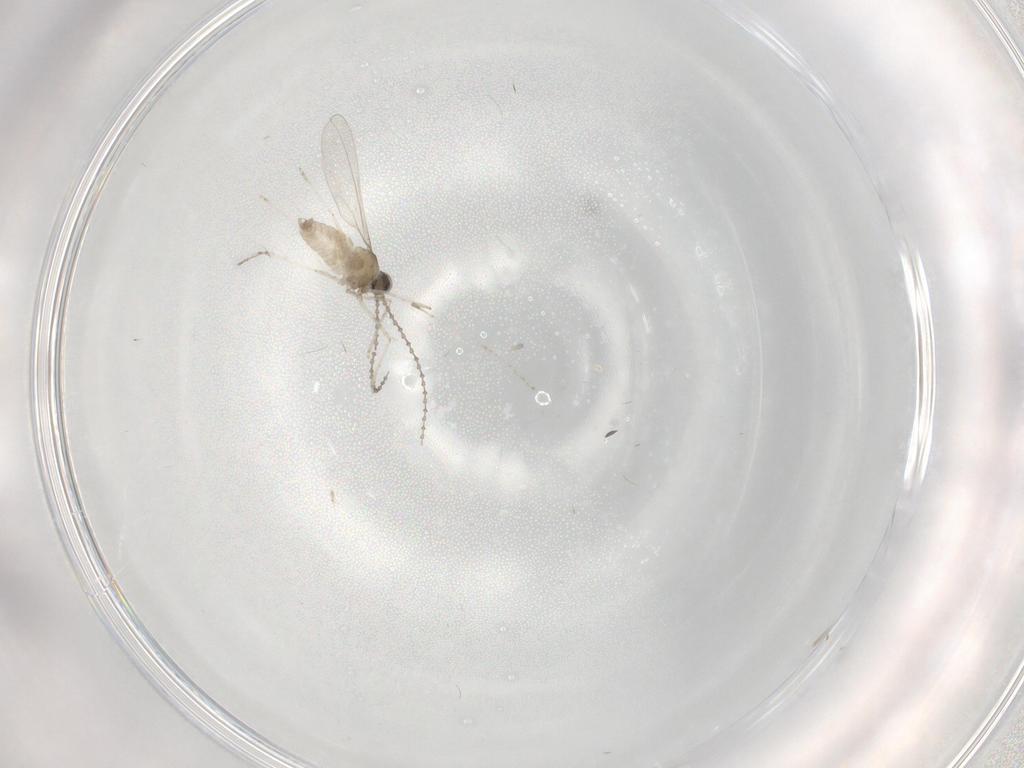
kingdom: Animalia
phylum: Arthropoda
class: Insecta
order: Diptera
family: Cecidomyiidae
